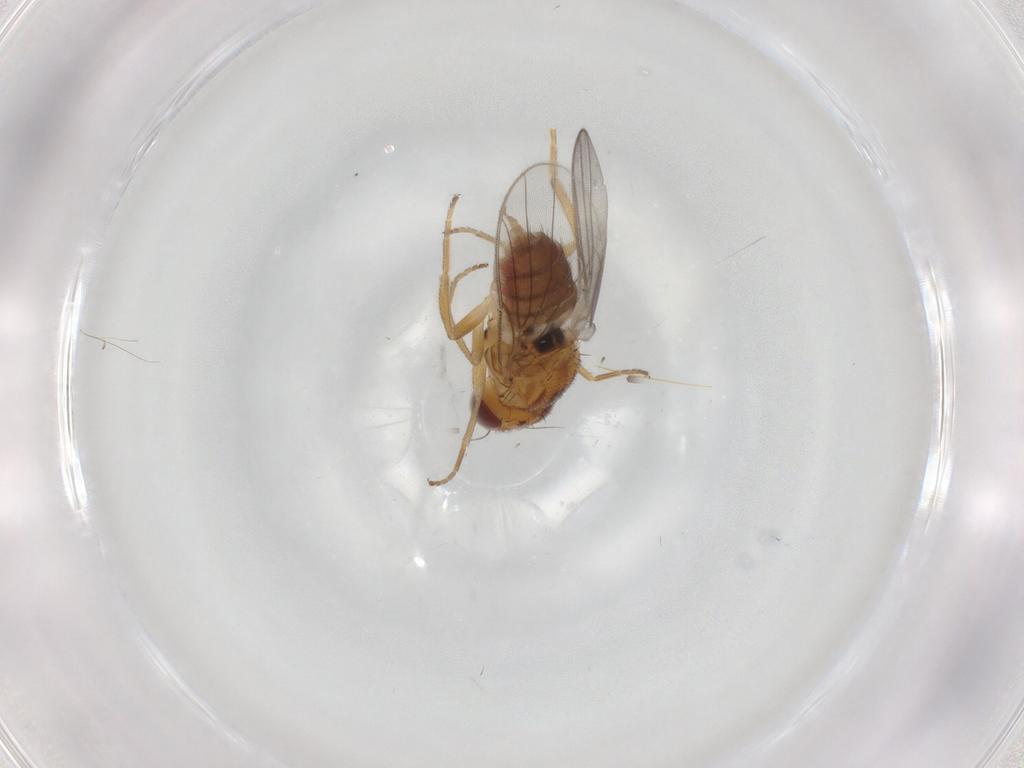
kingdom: Animalia
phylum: Arthropoda
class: Insecta
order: Diptera
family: Chloropidae
